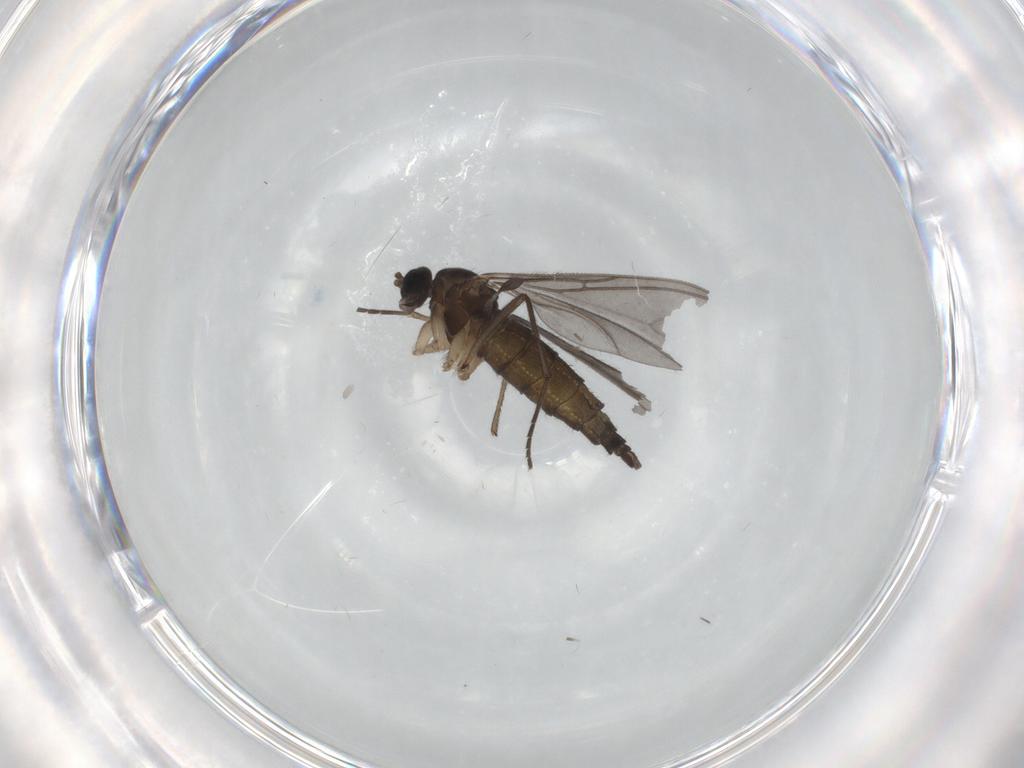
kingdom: Animalia
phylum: Arthropoda
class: Insecta
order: Diptera
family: Sciaridae
